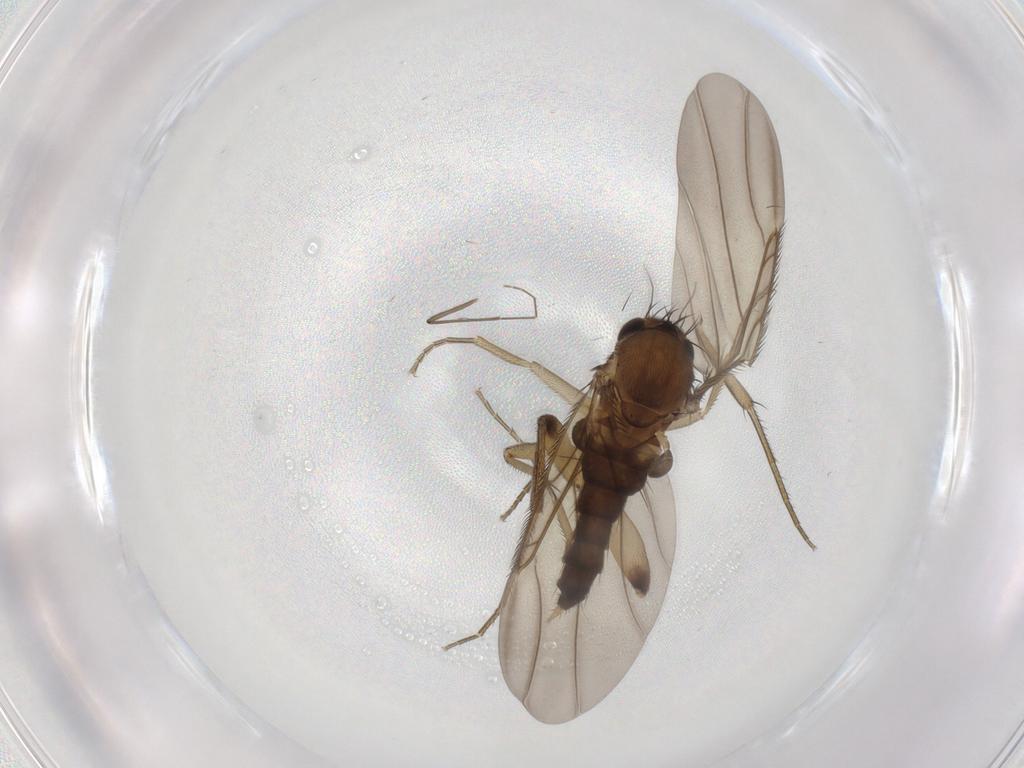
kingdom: Animalia
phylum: Arthropoda
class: Insecta
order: Diptera
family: Phoridae
